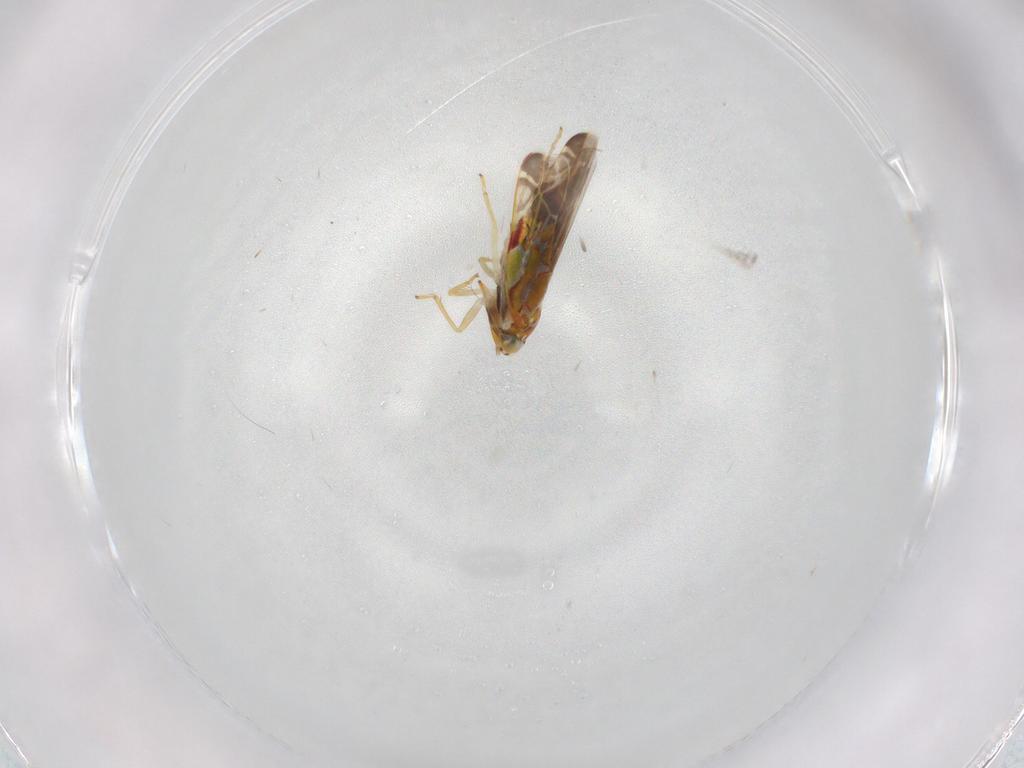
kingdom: Animalia
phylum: Arthropoda
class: Insecta
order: Hemiptera
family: Cicadellidae
